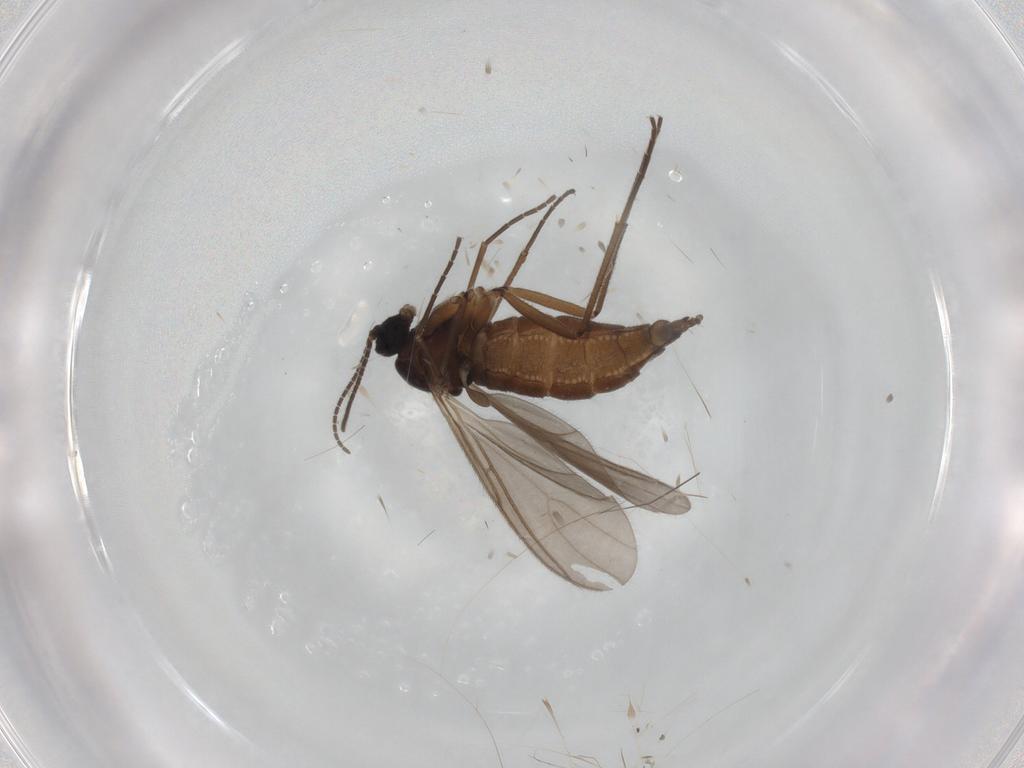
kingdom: Animalia
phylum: Arthropoda
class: Insecta
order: Diptera
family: Sciaridae
